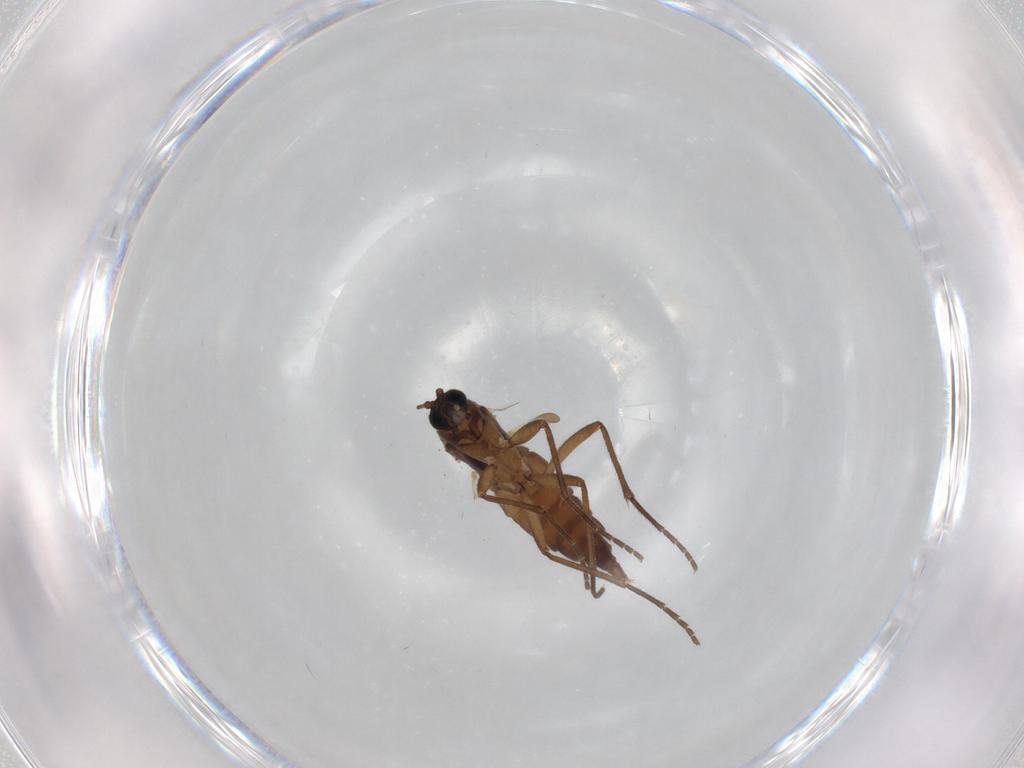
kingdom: Animalia
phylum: Arthropoda
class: Insecta
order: Diptera
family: Sciaridae
